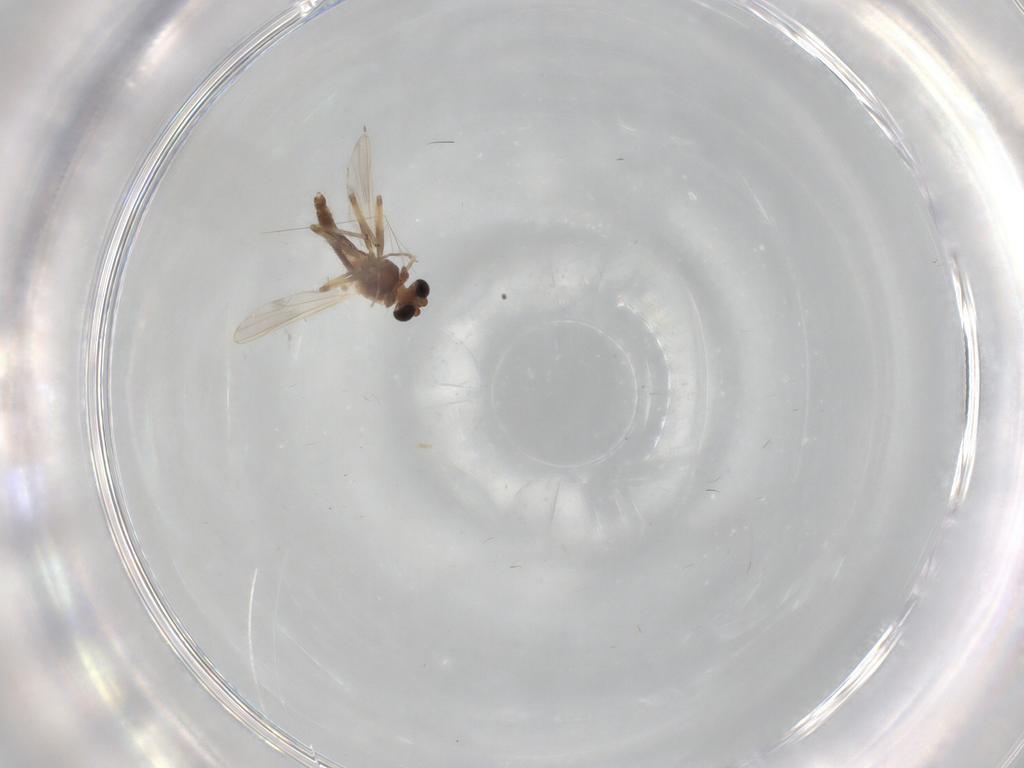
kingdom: Animalia
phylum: Arthropoda
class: Insecta
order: Diptera
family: Chironomidae
